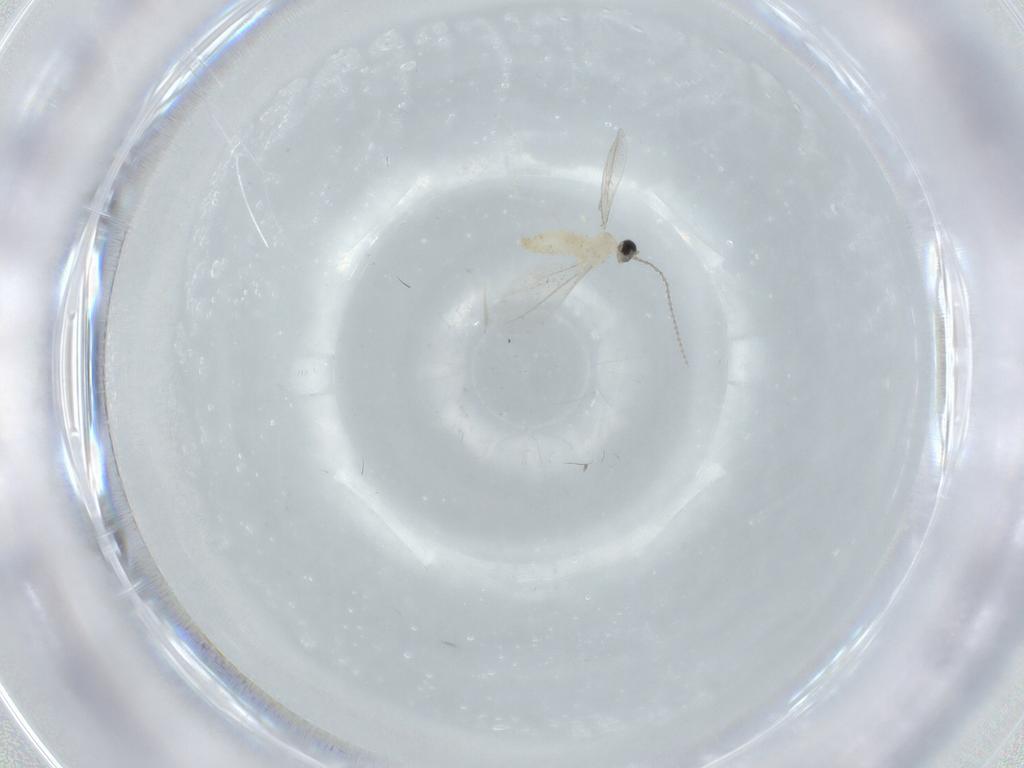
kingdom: Animalia
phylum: Arthropoda
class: Insecta
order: Diptera
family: Cecidomyiidae
